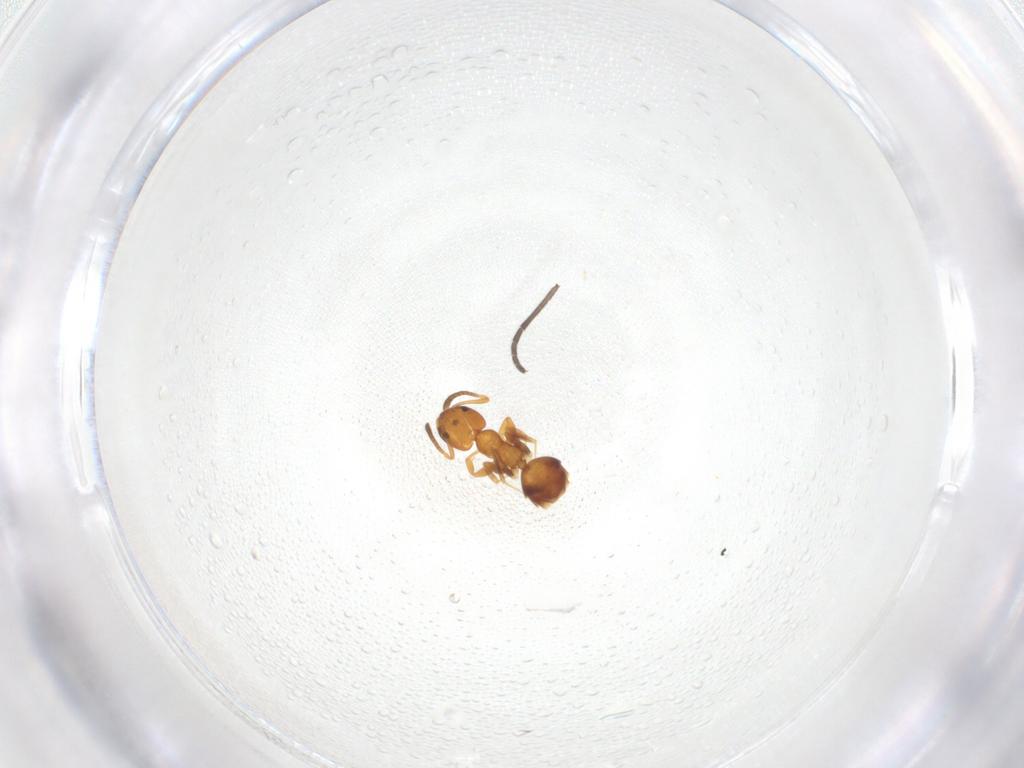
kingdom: Animalia
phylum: Arthropoda
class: Insecta
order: Hymenoptera
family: Formicidae
